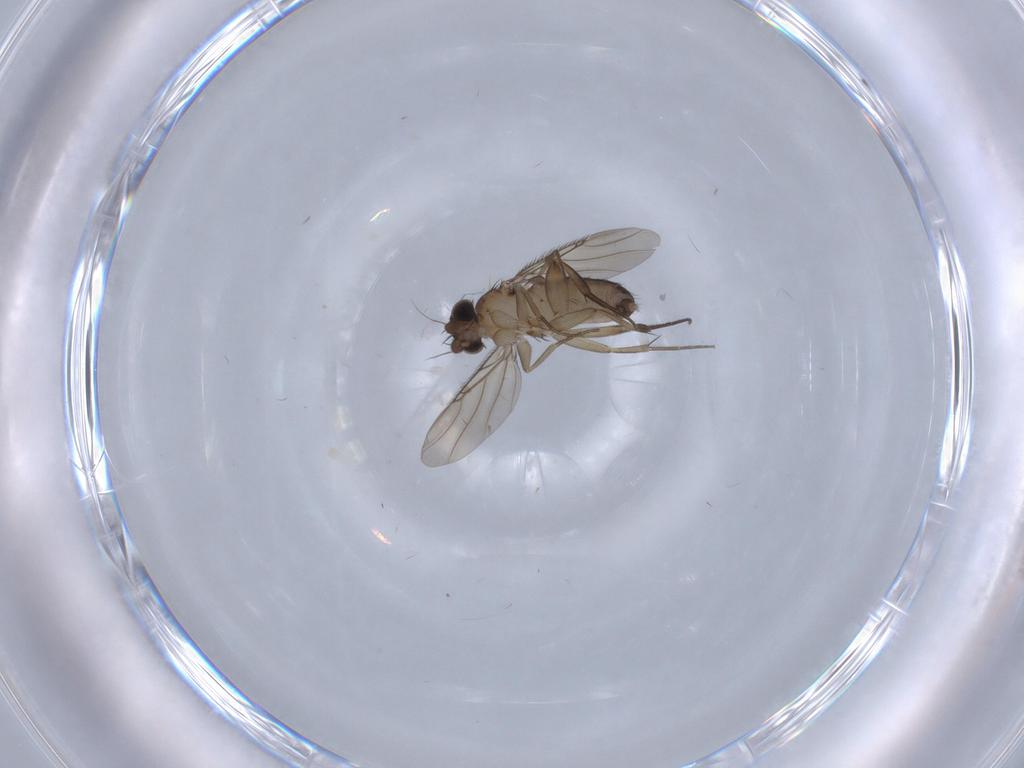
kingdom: Animalia
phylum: Arthropoda
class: Insecta
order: Diptera
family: Phoridae
